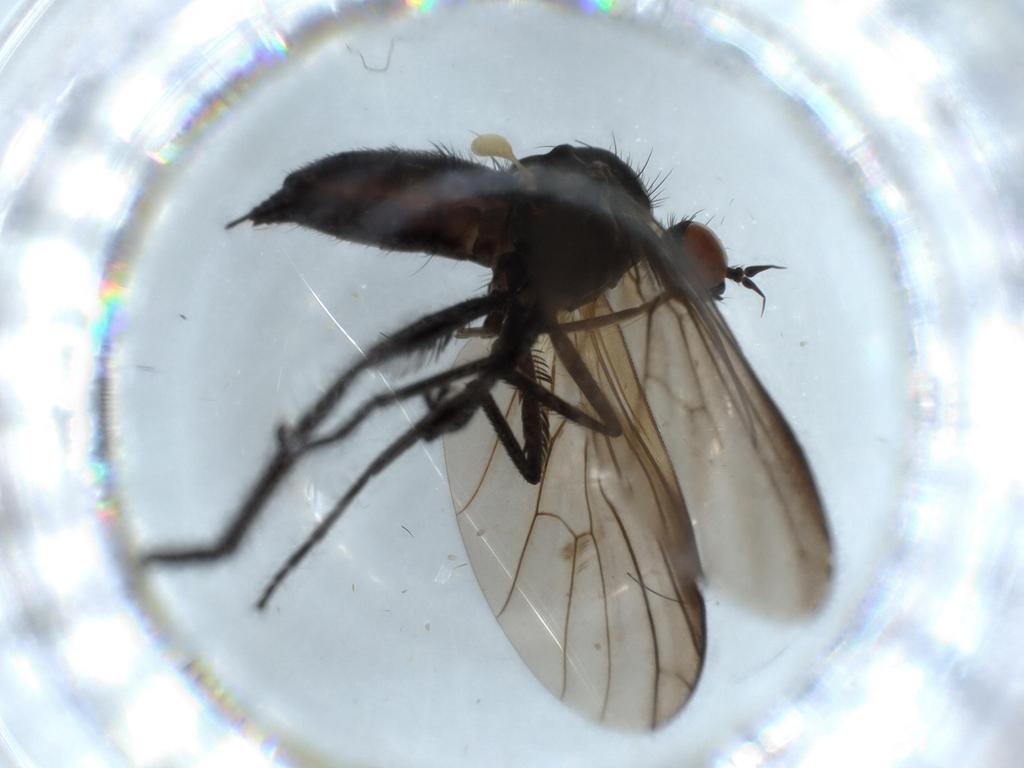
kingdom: Animalia
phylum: Arthropoda
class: Insecta
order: Diptera
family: Empididae
